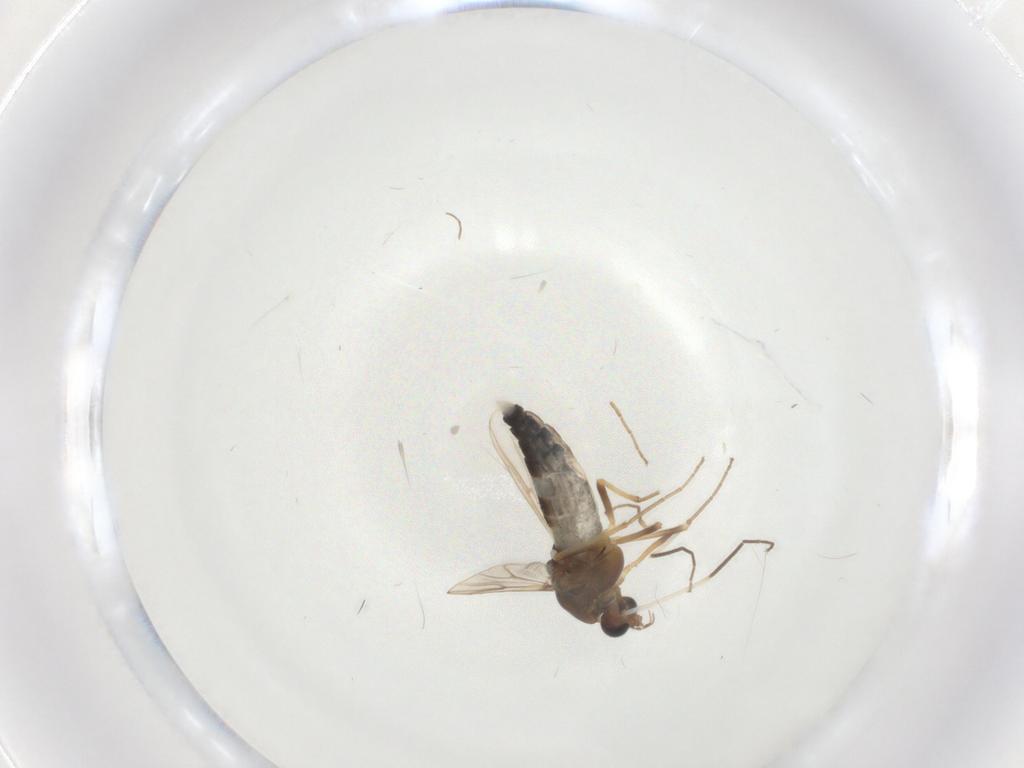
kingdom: Animalia
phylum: Arthropoda
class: Insecta
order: Diptera
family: Chironomidae
